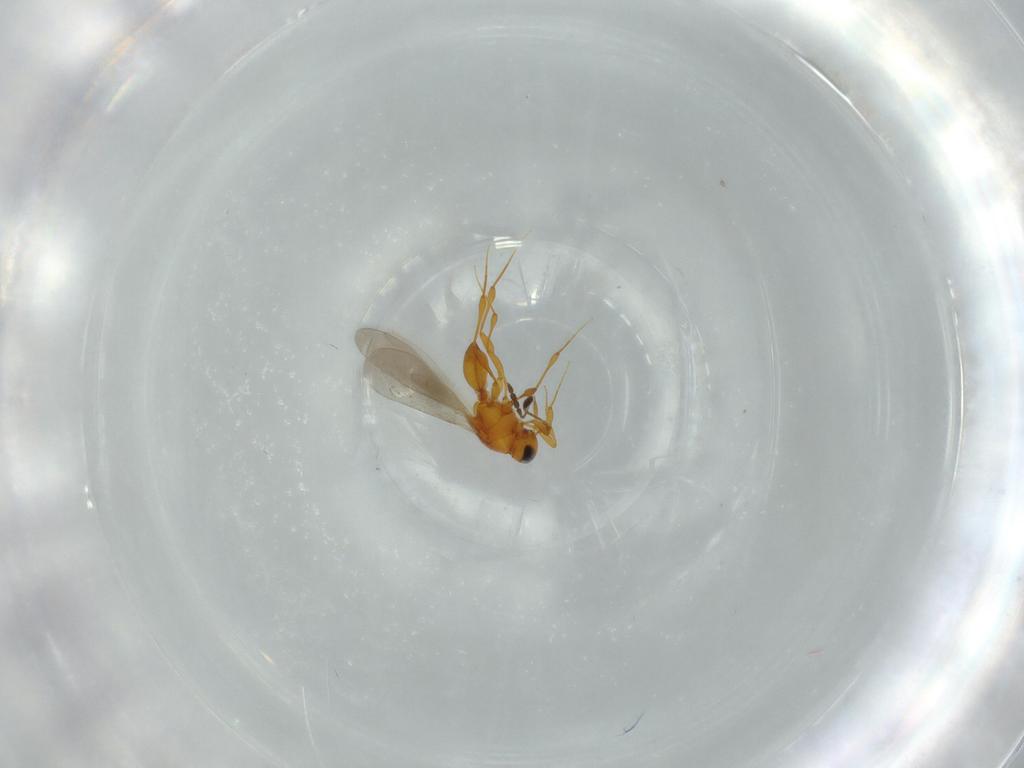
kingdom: Animalia
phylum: Arthropoda
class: Insecta
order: Hymenoptera
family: Platygastridae
